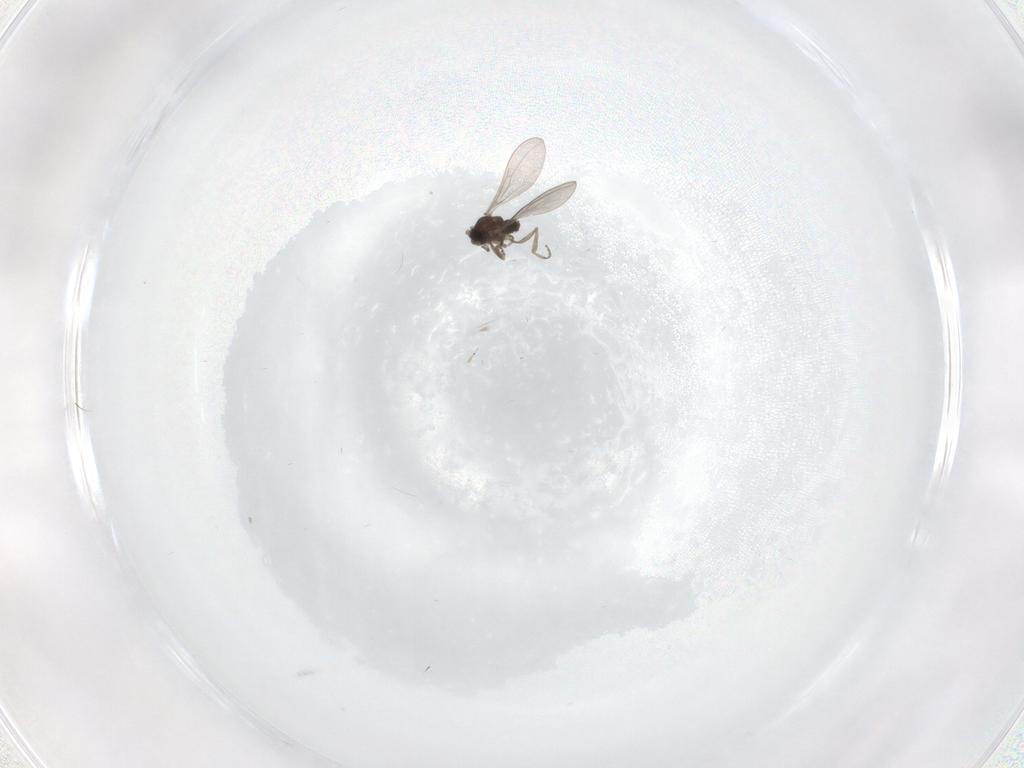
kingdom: Animalia
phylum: Arthropoda
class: Insecta
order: Diptera
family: Cecidomyiidae
